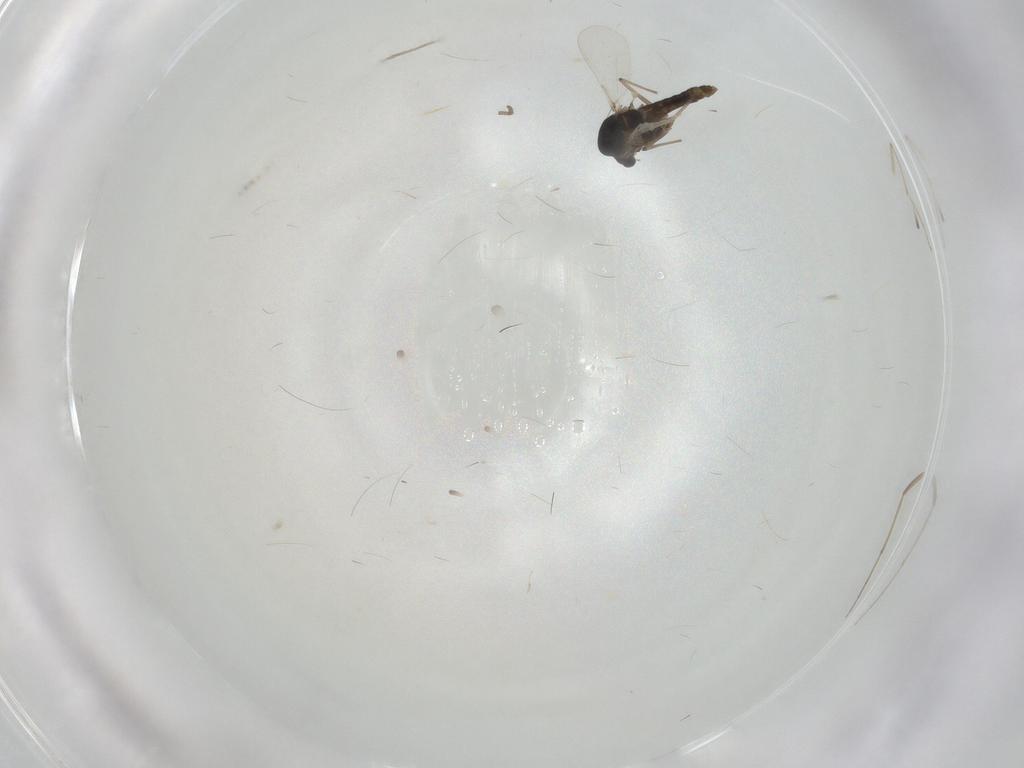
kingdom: Animalia
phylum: Arthropoda
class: Insecta
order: Diptera
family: Chironomidae
